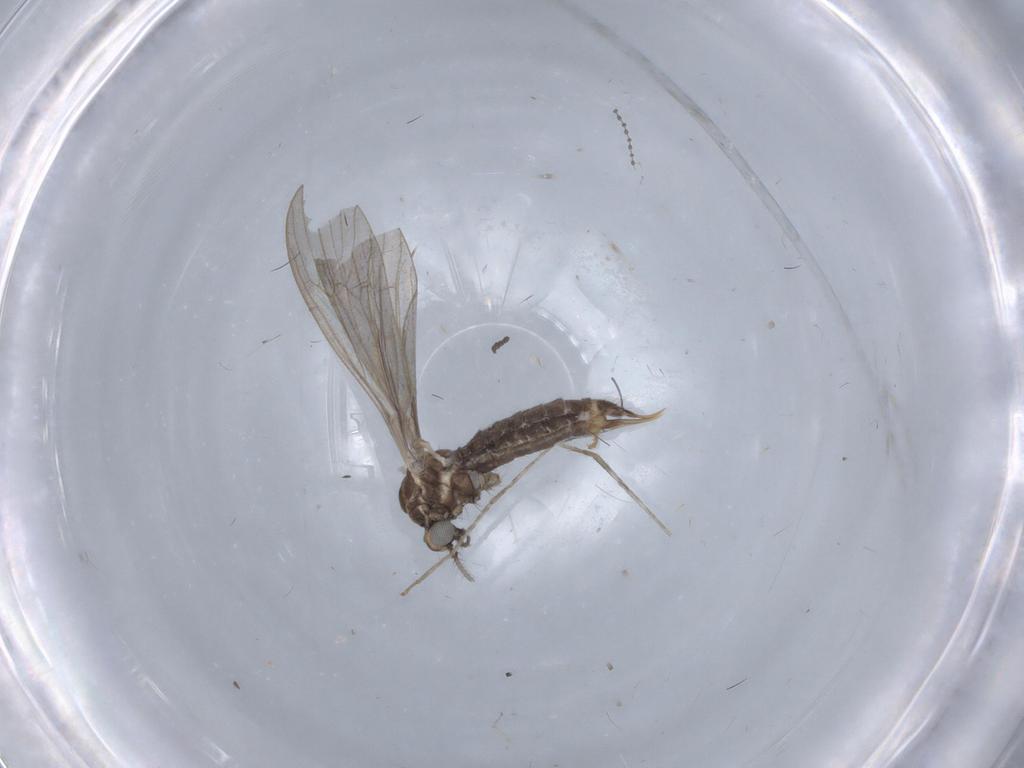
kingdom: Animalia
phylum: Arthropoda
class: Insecta
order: Diptera
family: Limoniidae
